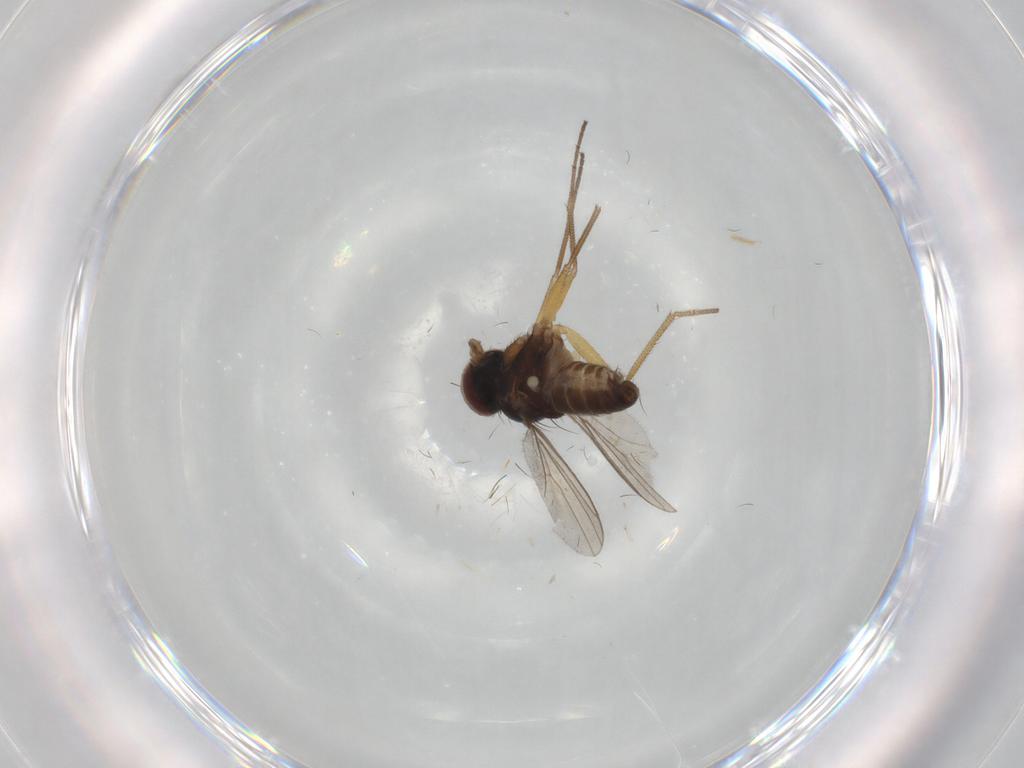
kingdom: Animalia
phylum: Arthropoda
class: Insecta
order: Diptera
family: Dolichopodidae
